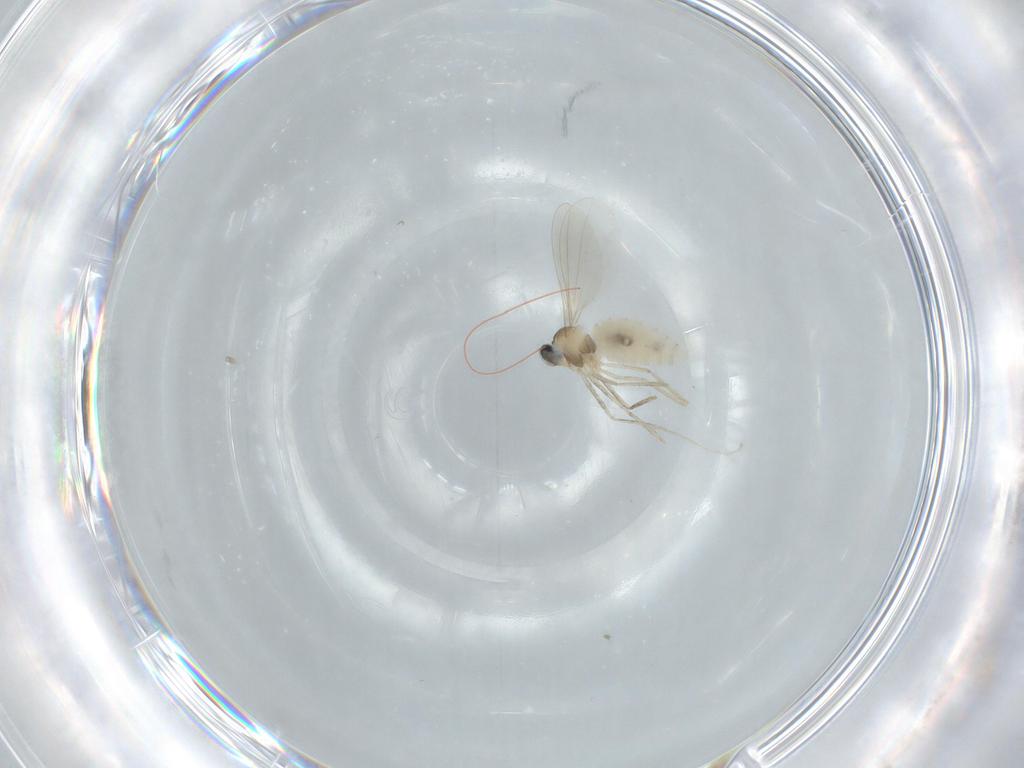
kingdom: Animalia
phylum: Arthropoda
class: Insecta
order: Diptera
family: Cecidomyiidae
